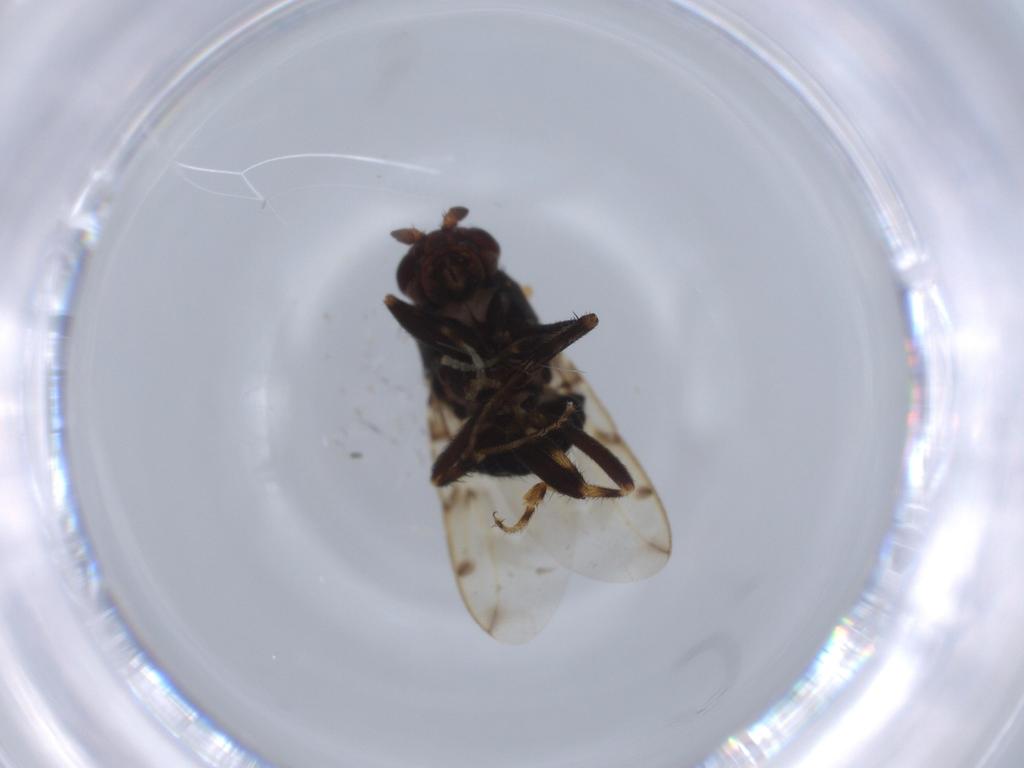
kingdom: Animalia
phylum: Arthropoda
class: Insecta
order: Diptera
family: Stratiomyidae
